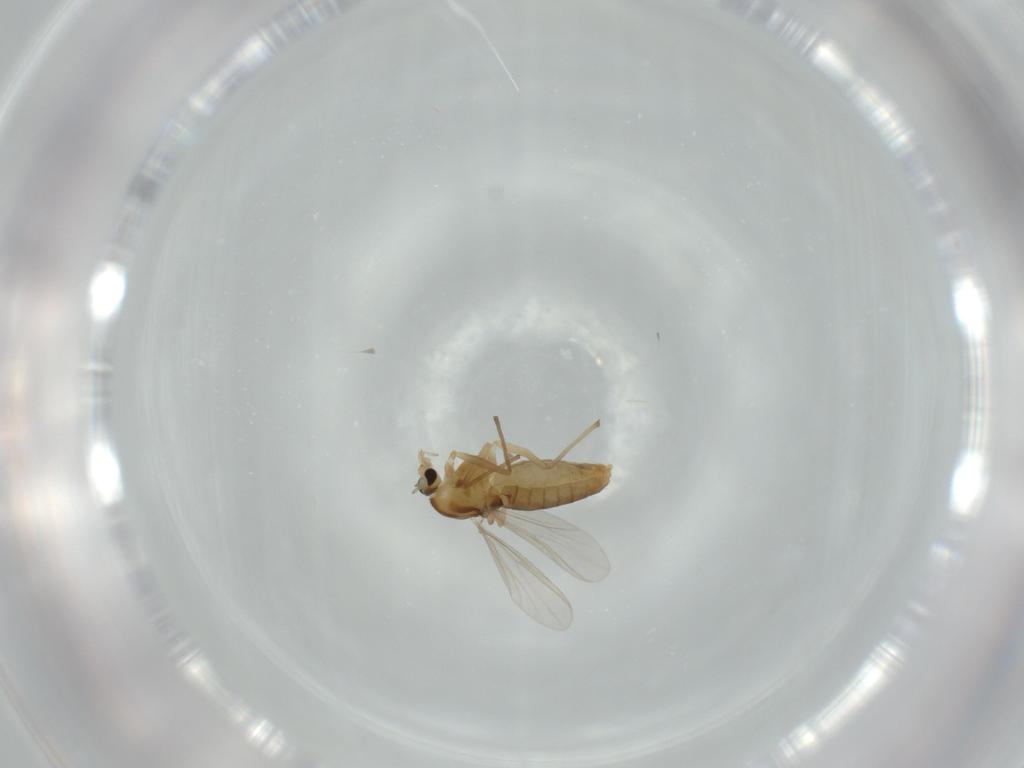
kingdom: Animalia
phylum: Arthropoda
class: Insecta
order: Diptera
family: Chironomidae
